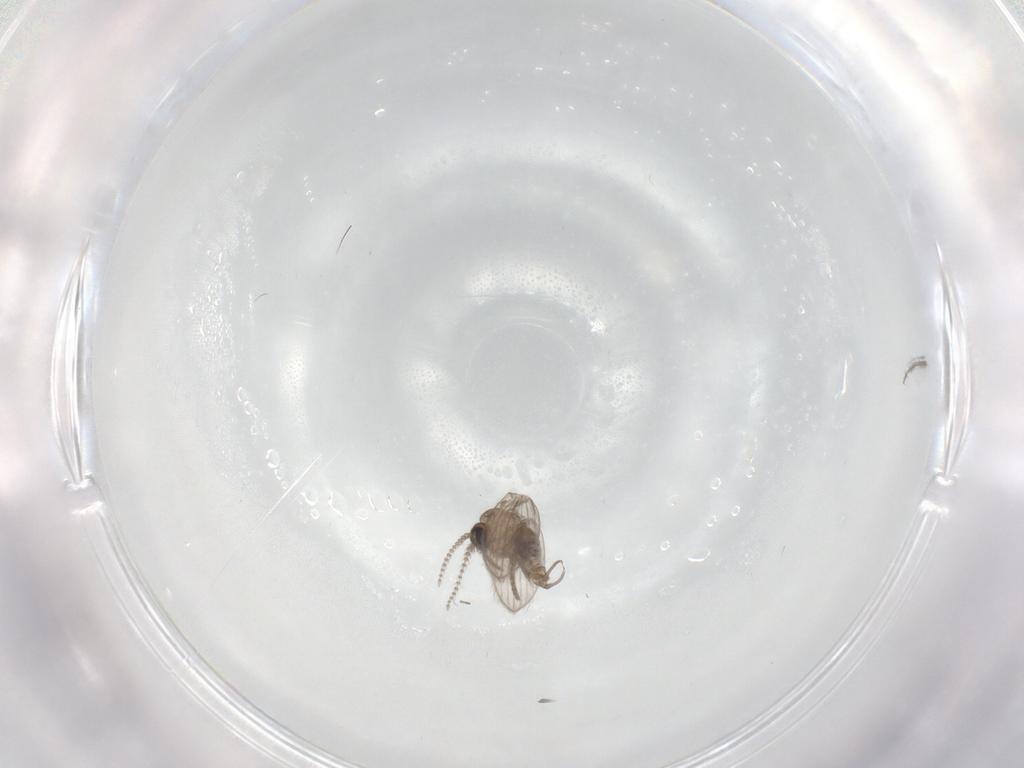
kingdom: Animalia
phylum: Arthropoda
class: Insecta
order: Diptera
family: Psychodidae
